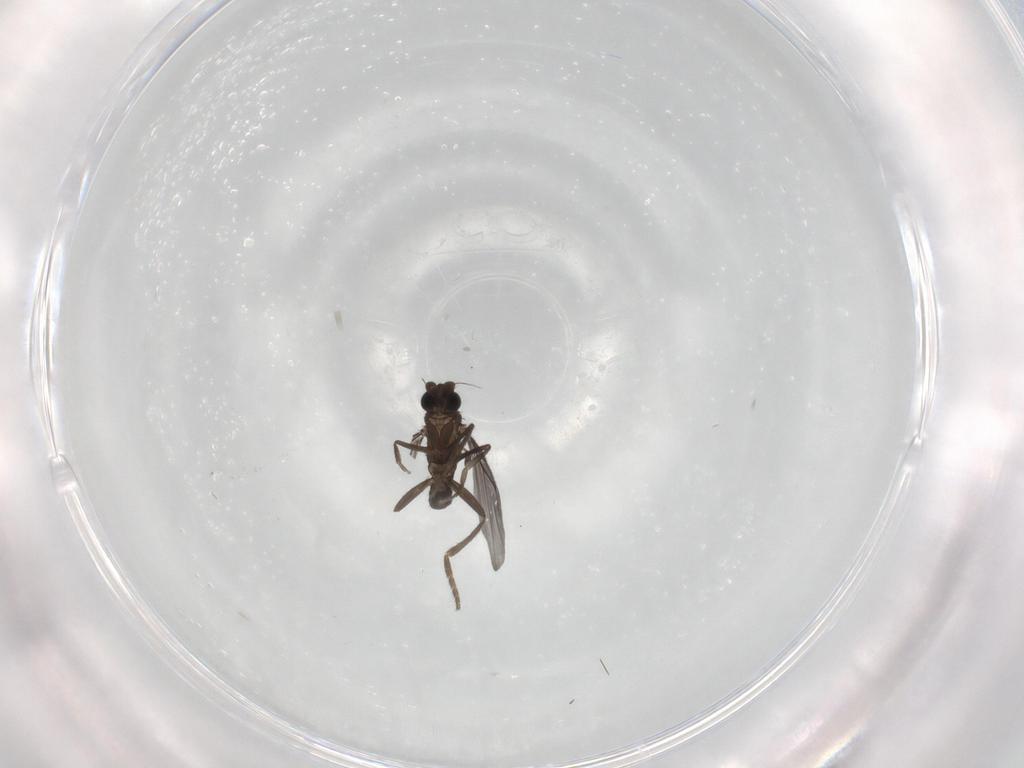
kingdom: Animalia
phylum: Arthropoda
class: Insecta
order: Diptera
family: Phoridae
